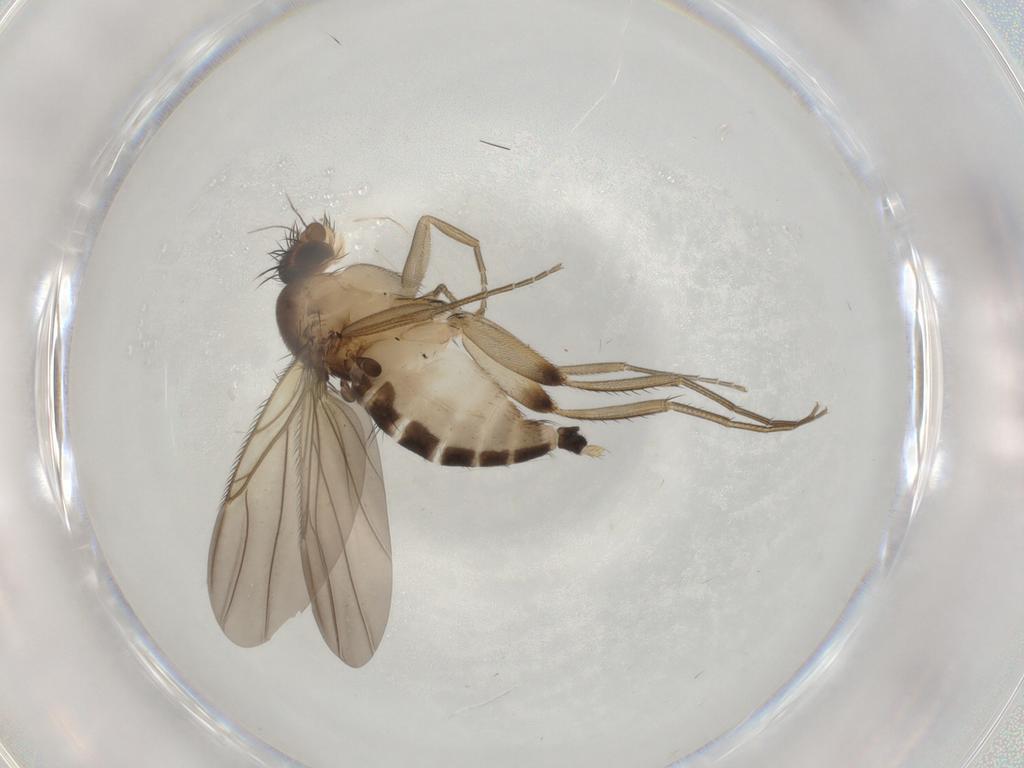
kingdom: Animalia
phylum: Arthropoda
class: Insecta
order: Diptera
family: Phoridae
